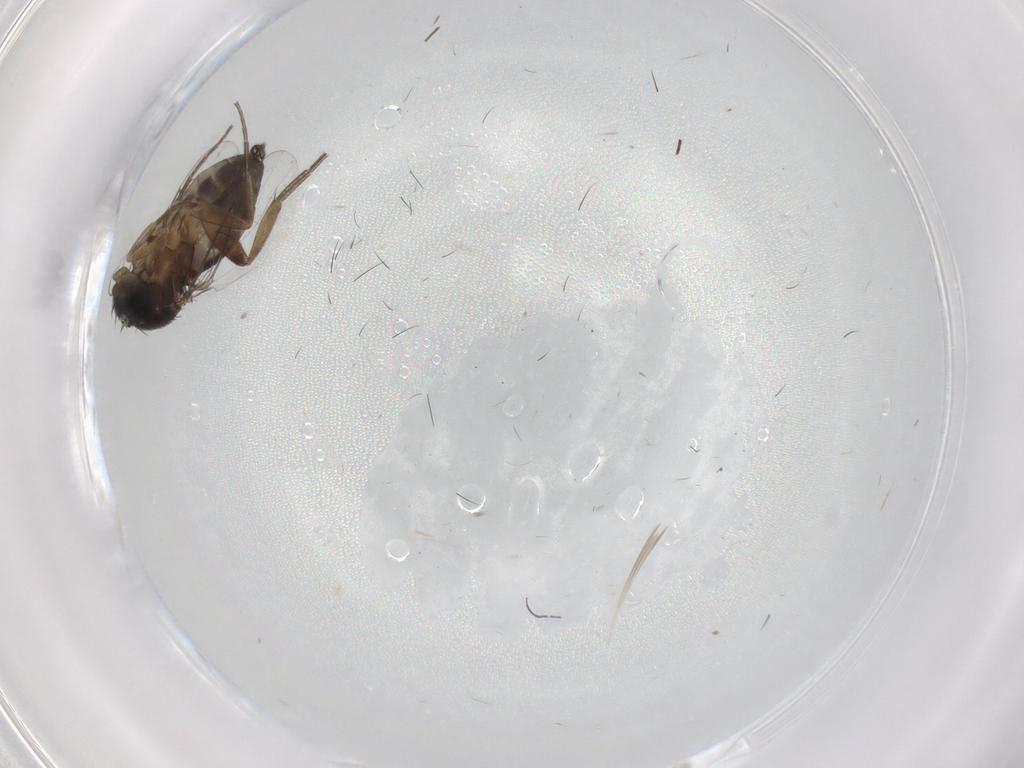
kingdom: Animalia
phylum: Arthropoda
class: Insecta
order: Diptera
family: Phoridae
